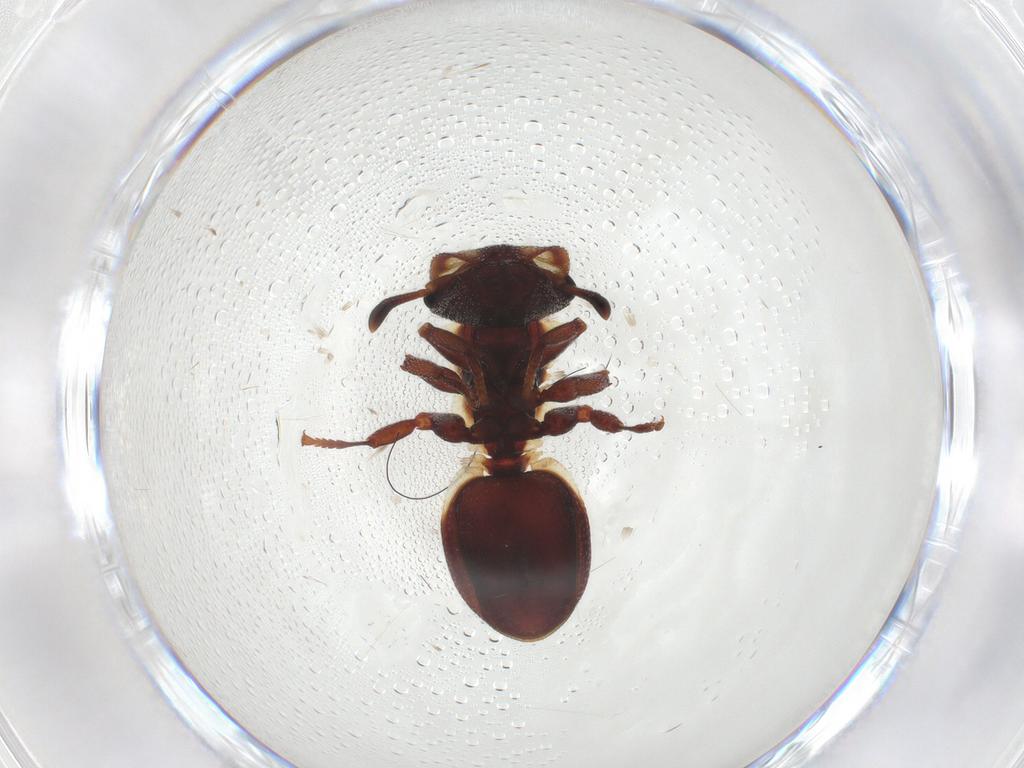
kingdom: Animalia
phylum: Arthropoda
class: Insecta
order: Hymenoptera
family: Formicidae
